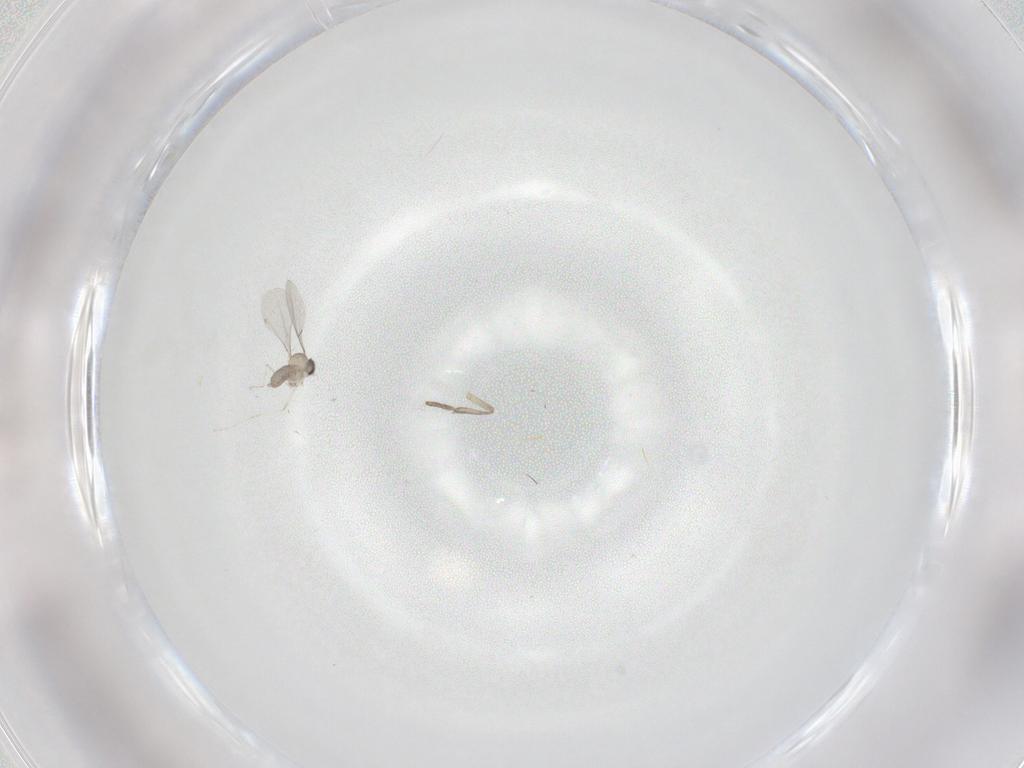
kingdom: Animalia
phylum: Arthropoda
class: Insecta
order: Diptera
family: Cecidomyiidae
